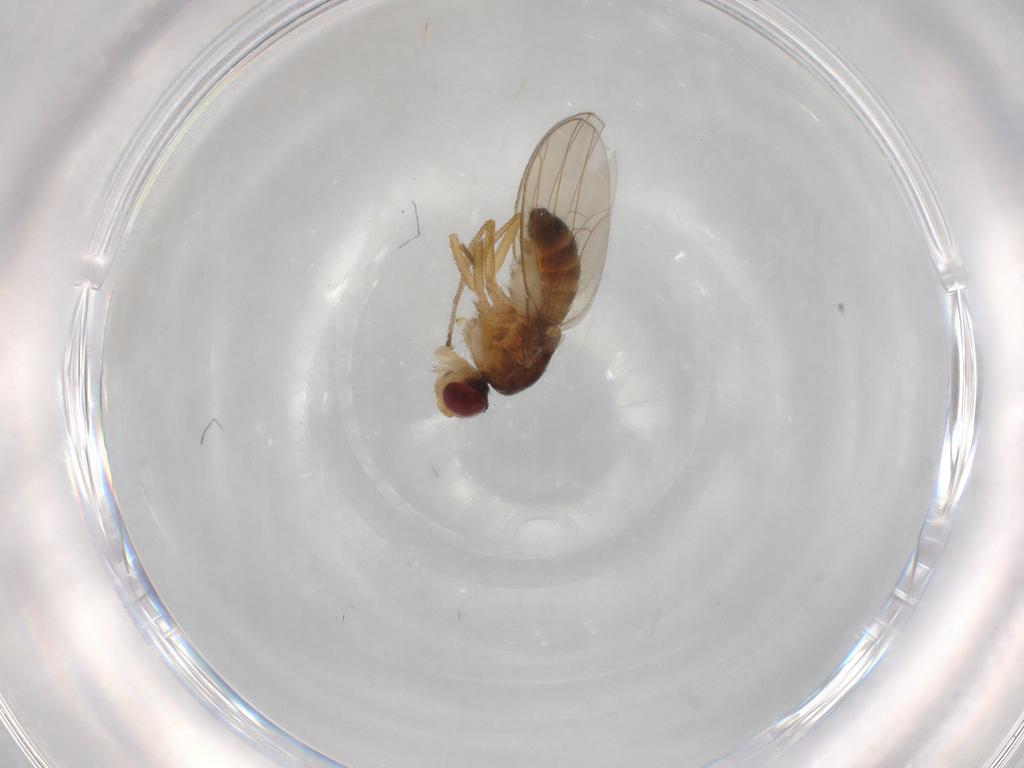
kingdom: Animalia
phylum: Arthropoda
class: Insecta
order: Diptera
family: Drosophilidae
